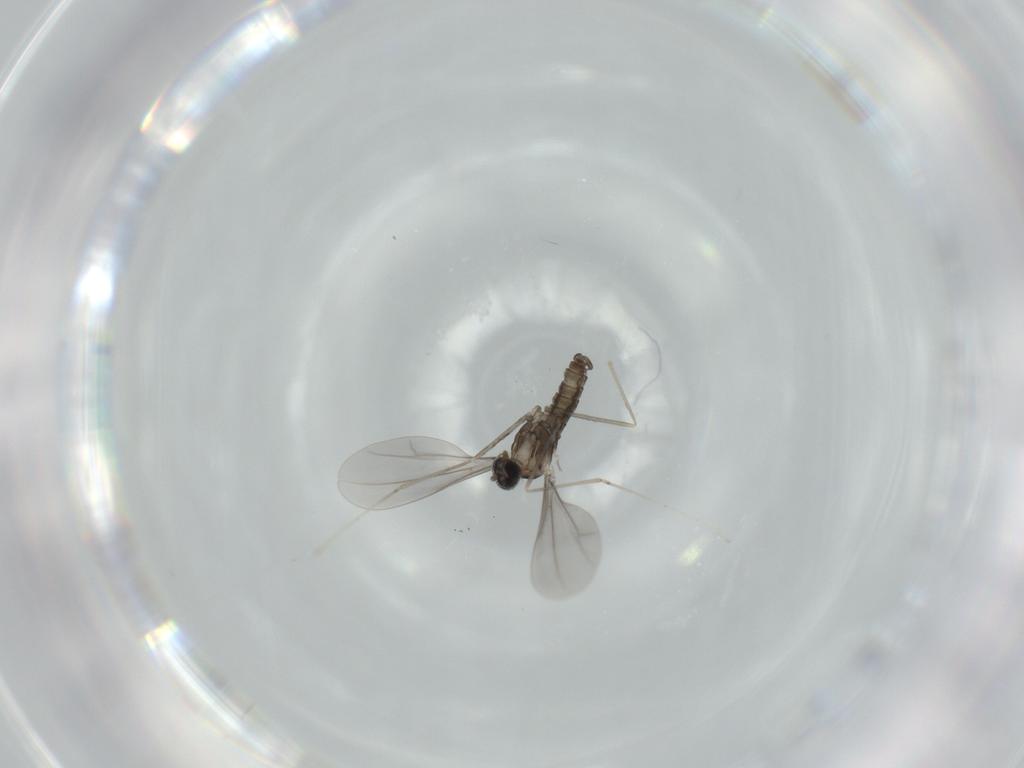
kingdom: Animalia
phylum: Arthropoda
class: Insecta
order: Diptera
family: Cecidomyiidae
